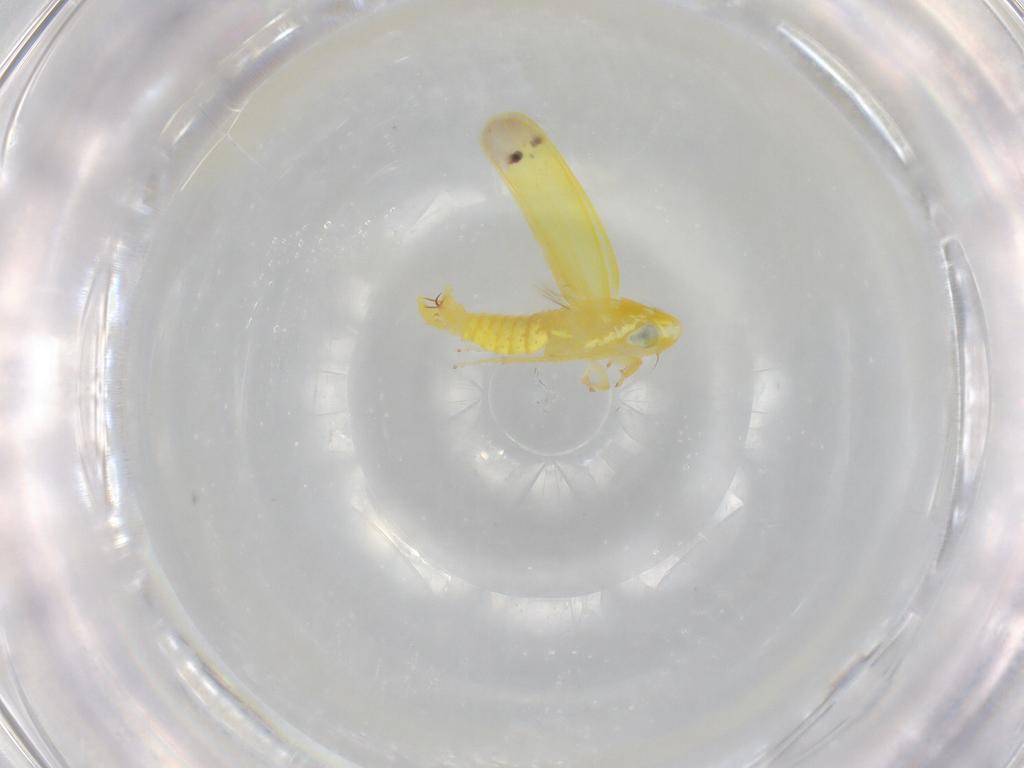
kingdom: Animalia
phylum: Arthropoda
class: Insecta
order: Hemiptera
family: Cicadellidae
